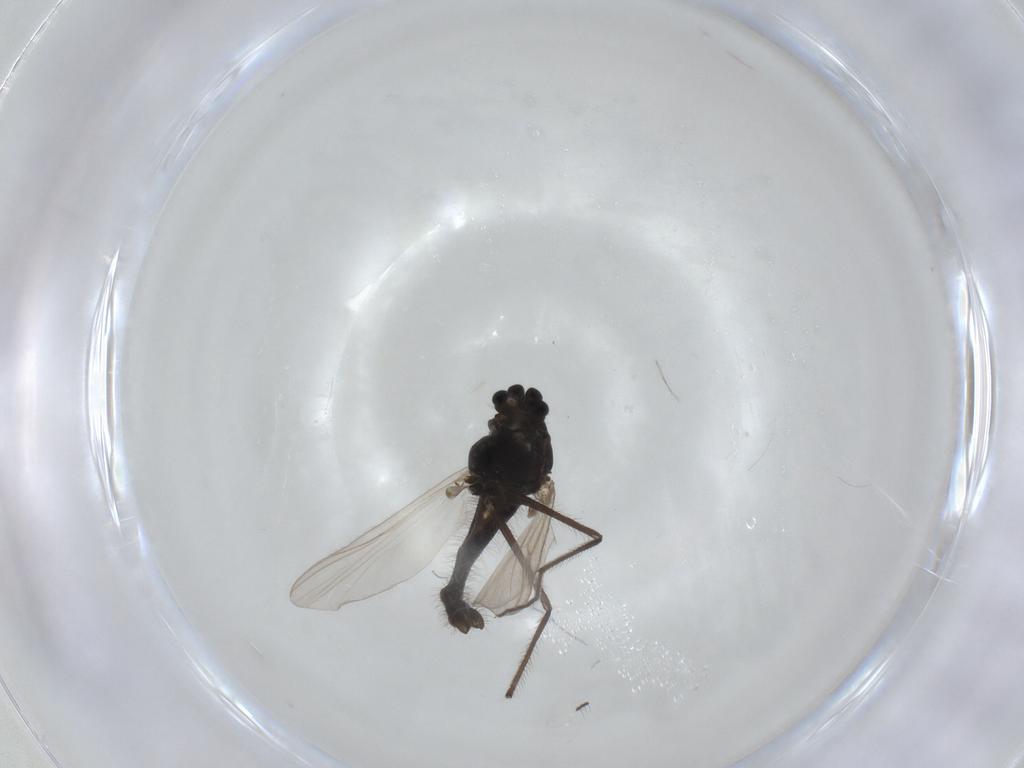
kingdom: Animalia
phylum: Arthropoda
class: Insecta
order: Diptera
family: Chironomidae
